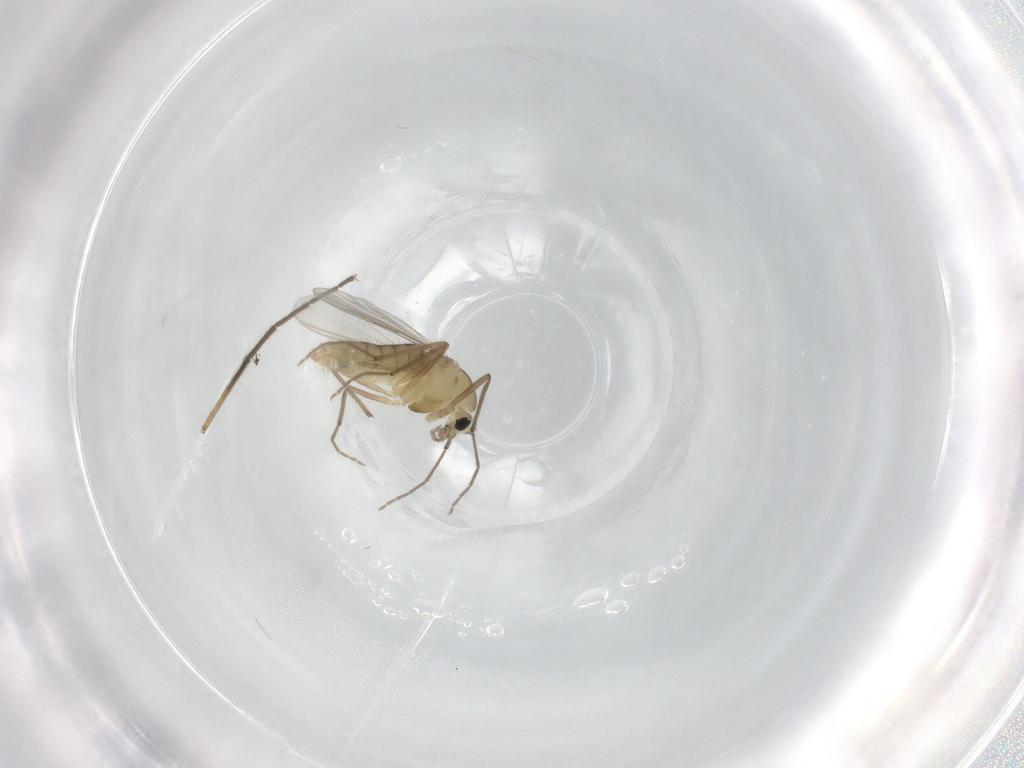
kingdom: Animalia
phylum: Arthropoda
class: Insecta
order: Diptera
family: Chironomidae
